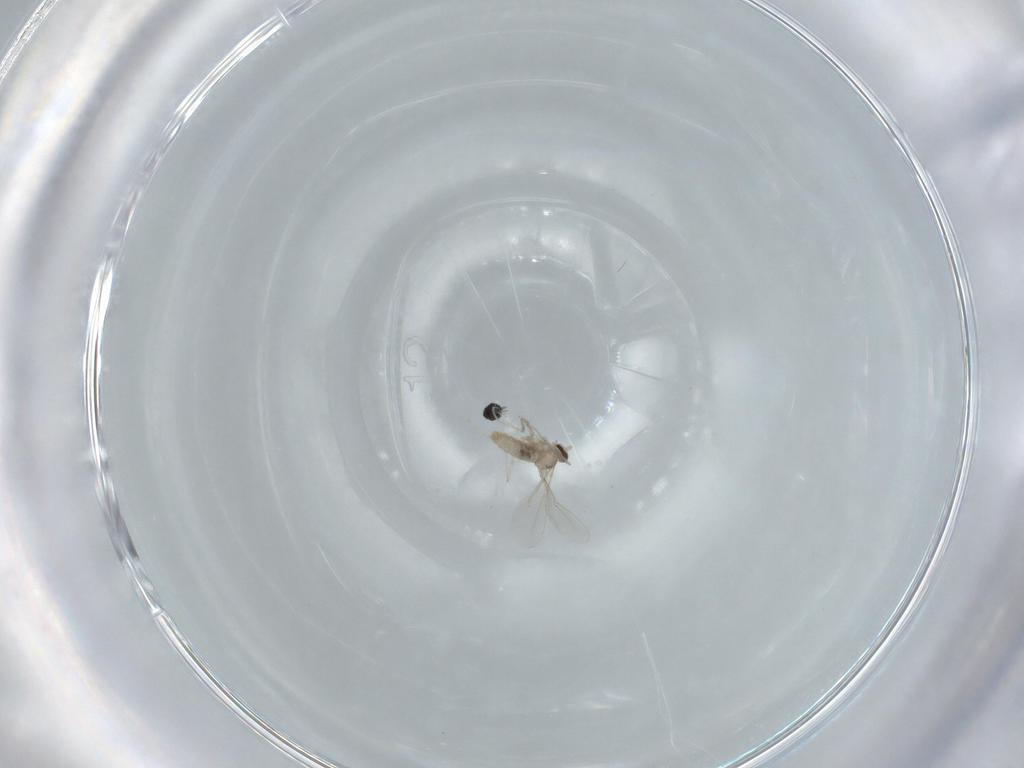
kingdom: Animalia
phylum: Arthropoda
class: Insecta
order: Diptera
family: Cecidomyiidae
